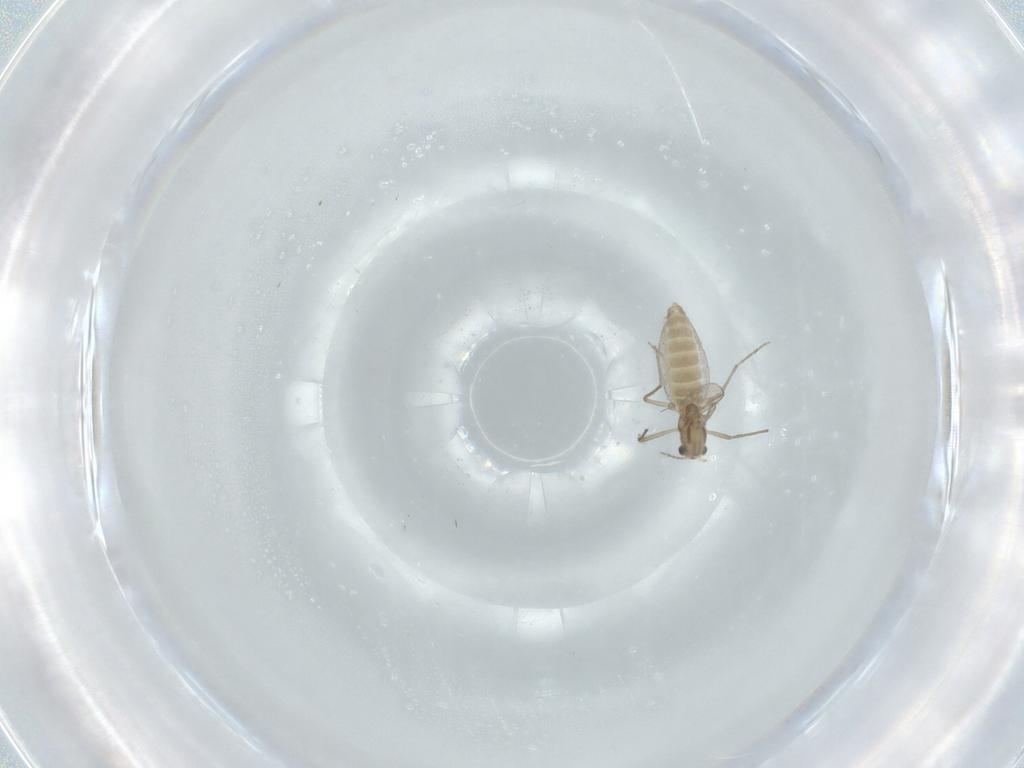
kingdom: Animalia
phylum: Arthropoda
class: Insecta
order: Diptera
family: Chironomidae
